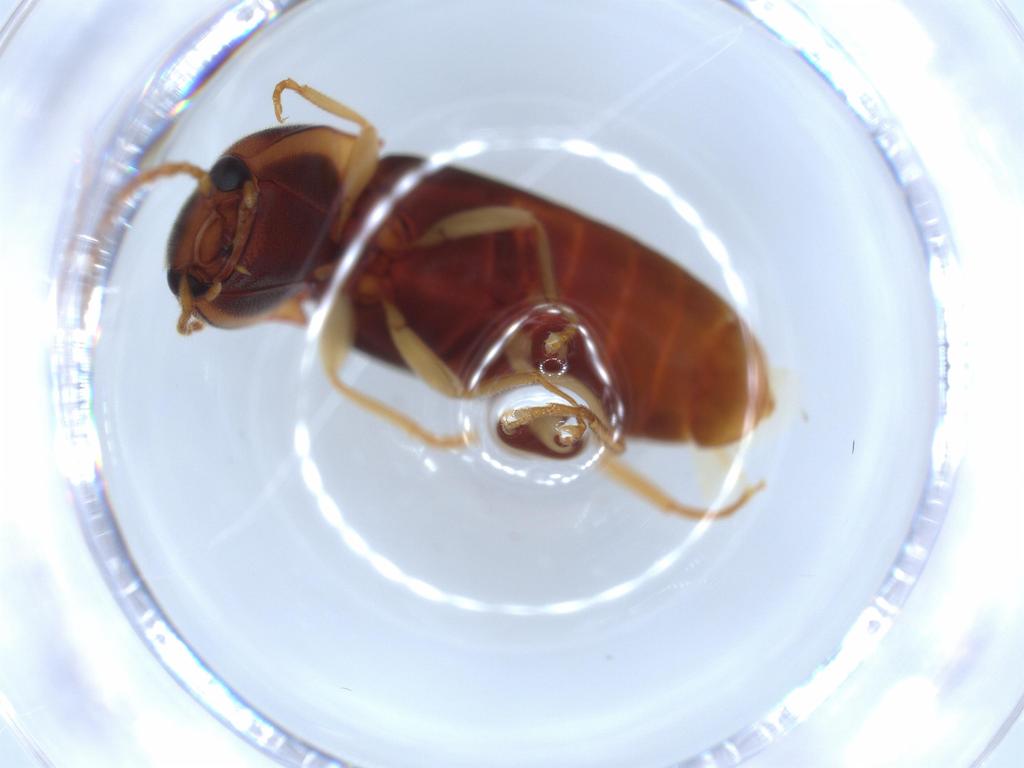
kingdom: Animalia
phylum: Arthropoda
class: Insecta
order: Coleoptera
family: Curculionidae
